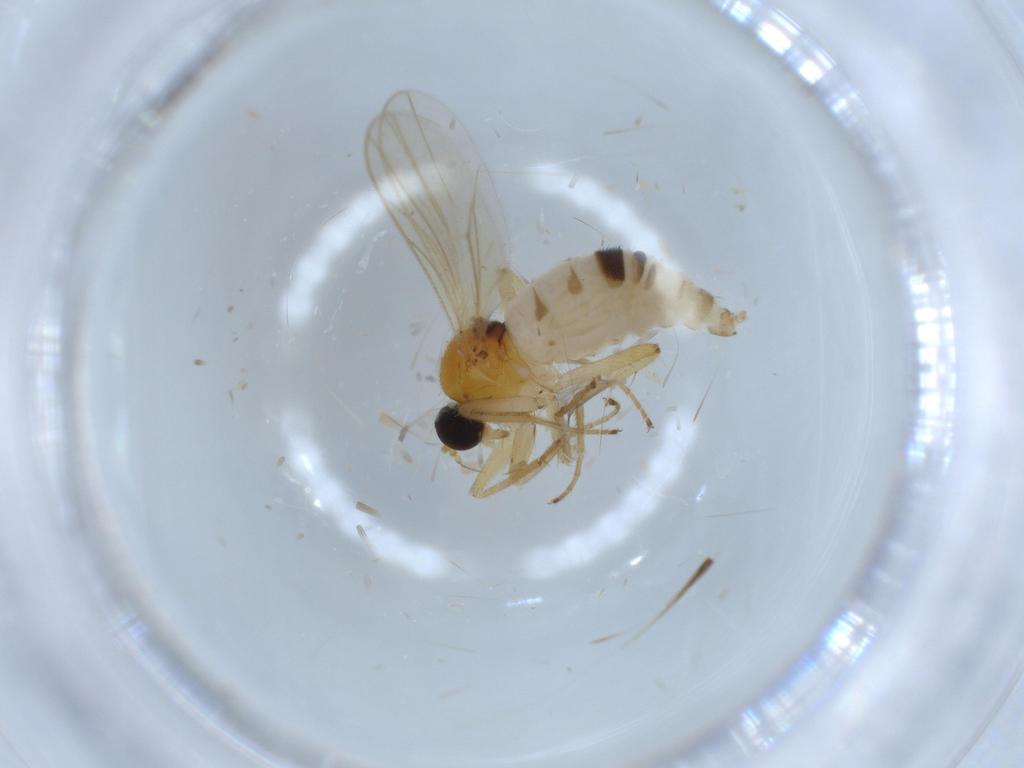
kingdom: Animalia
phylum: Arthropoda
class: Insecta
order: Diptera
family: Hybotidae
